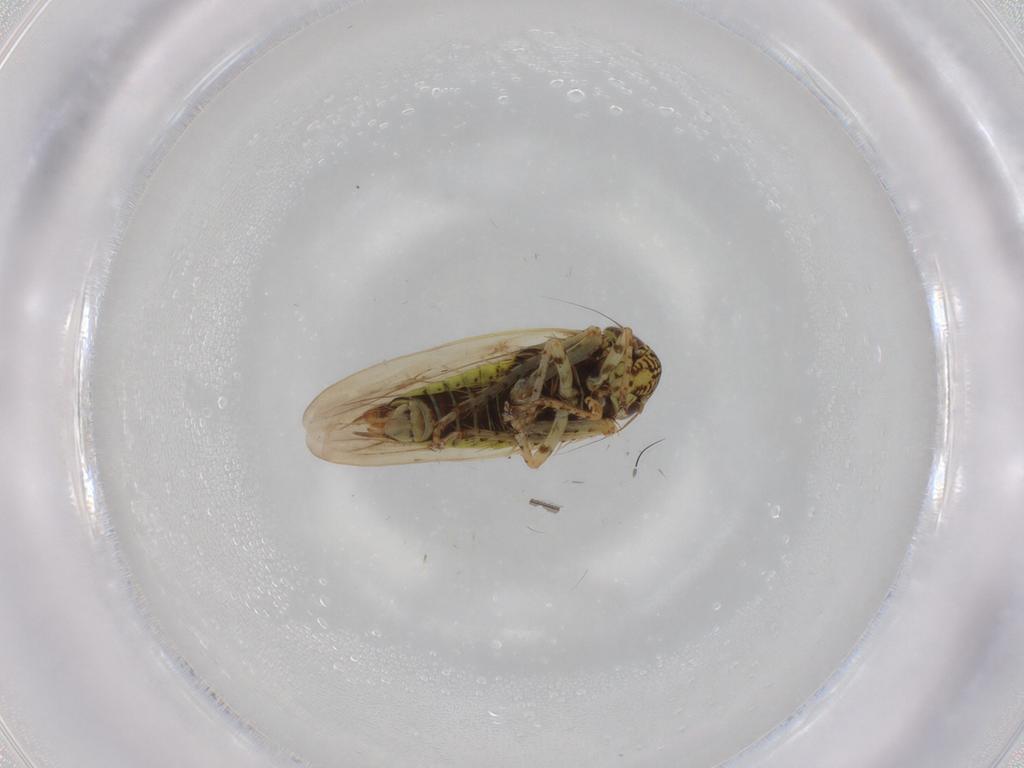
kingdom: Animalia
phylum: Arthropoda
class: Insecta
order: Hemiptera
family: Cicadellidae
